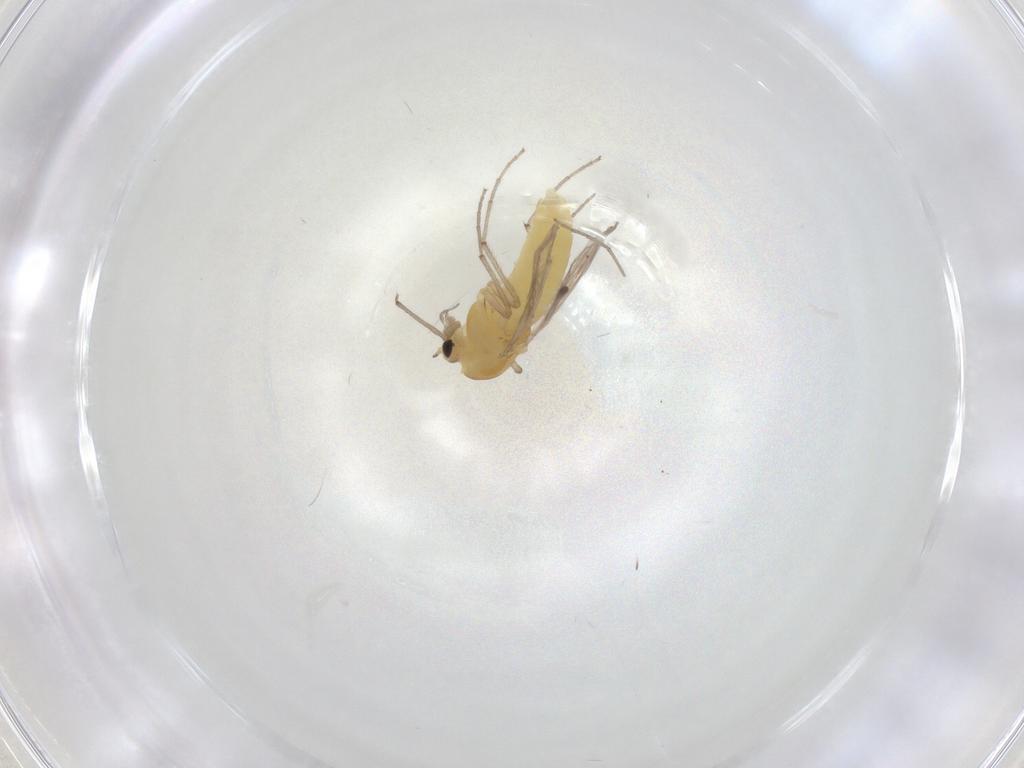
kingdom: Animalia
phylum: Arthropoda
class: Insecta
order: Diptera
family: Chironomidae
